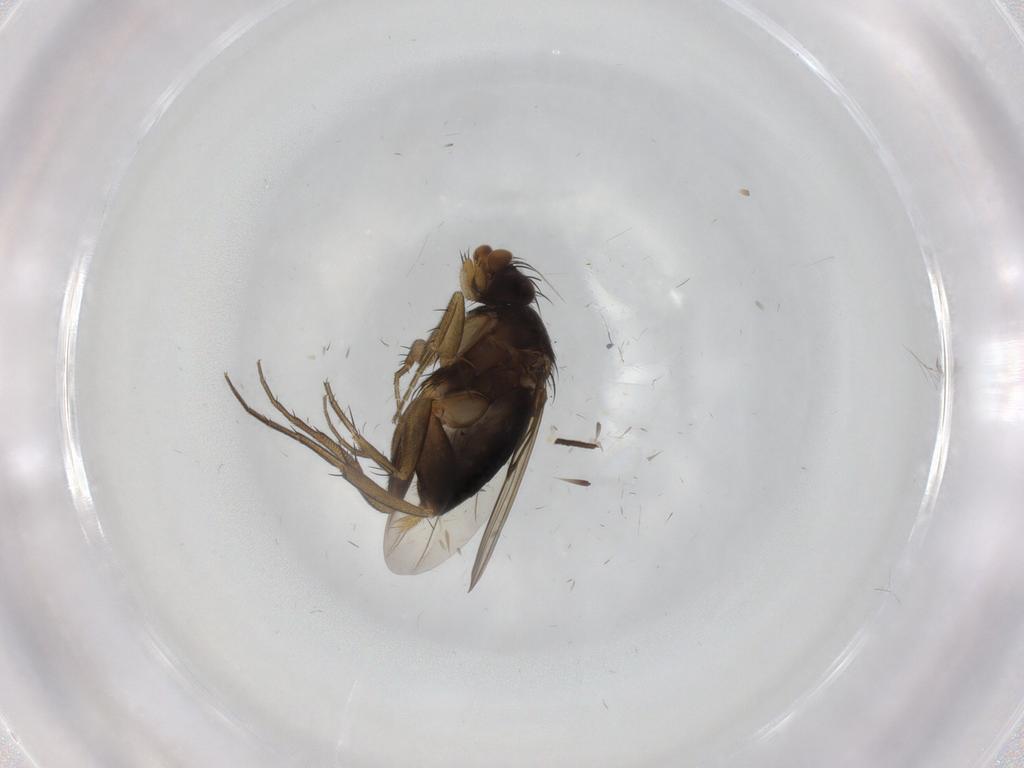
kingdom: Animalia
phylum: Arthropoda
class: Insecta
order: Diptera
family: Phoridae
